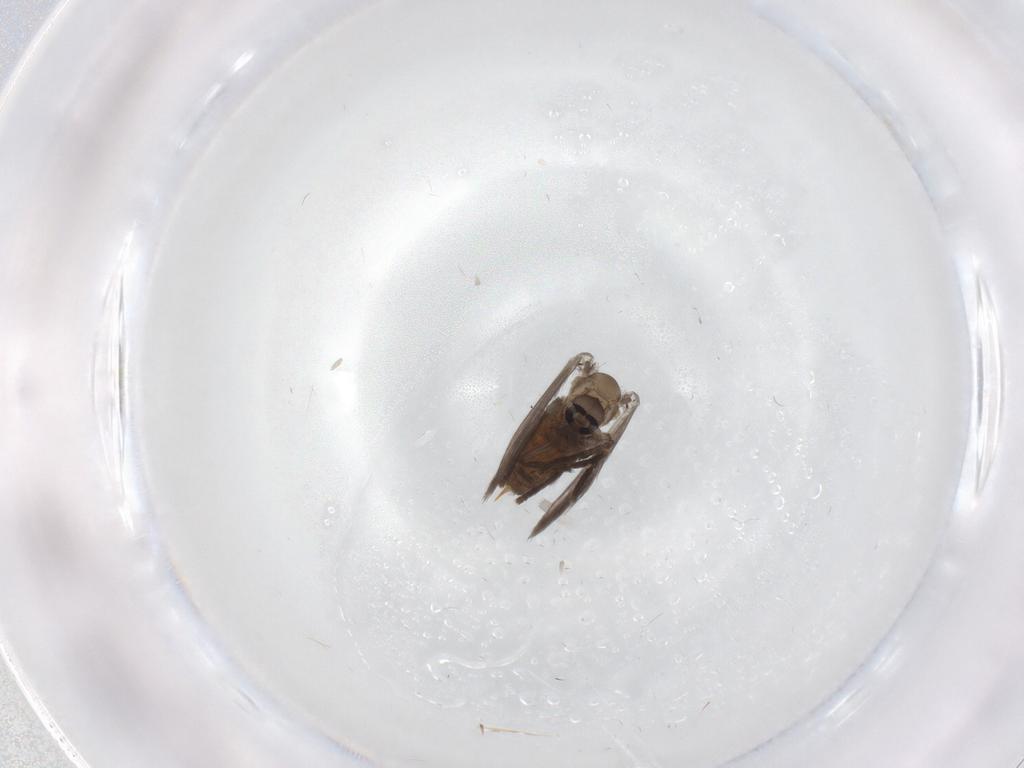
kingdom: Animalia
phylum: Arthropoda
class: Insecta
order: Diptera
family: Psychodidae
